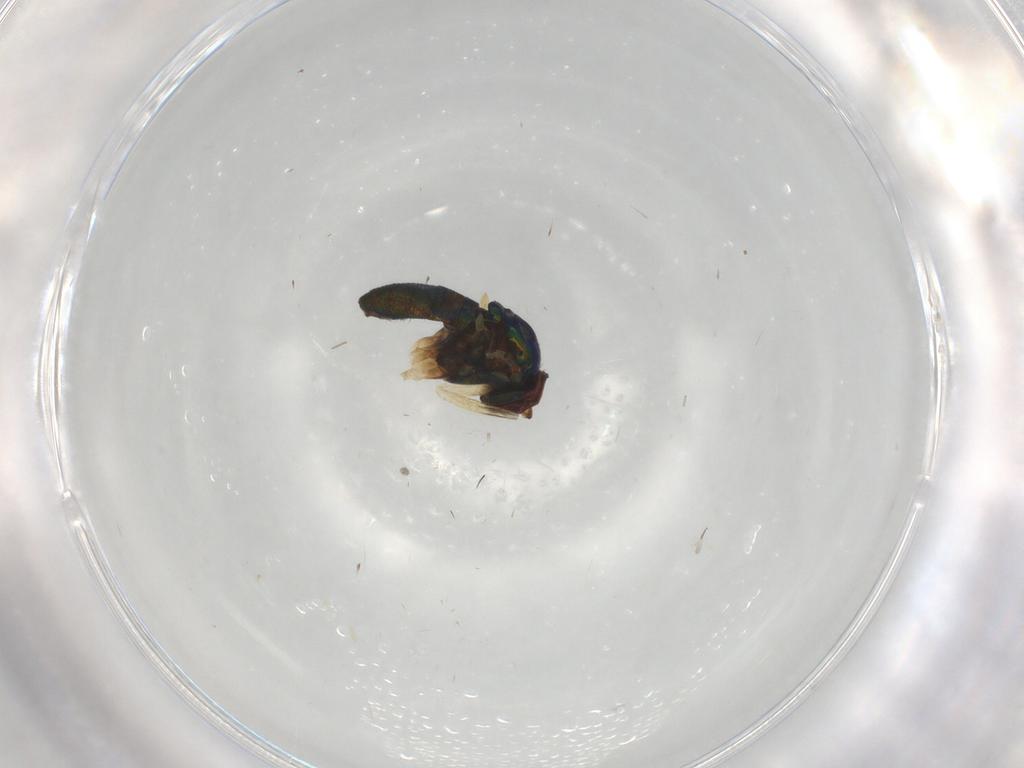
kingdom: Animalia
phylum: Arthropoda
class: Insecta
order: Diptera
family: Dolichopodidae
